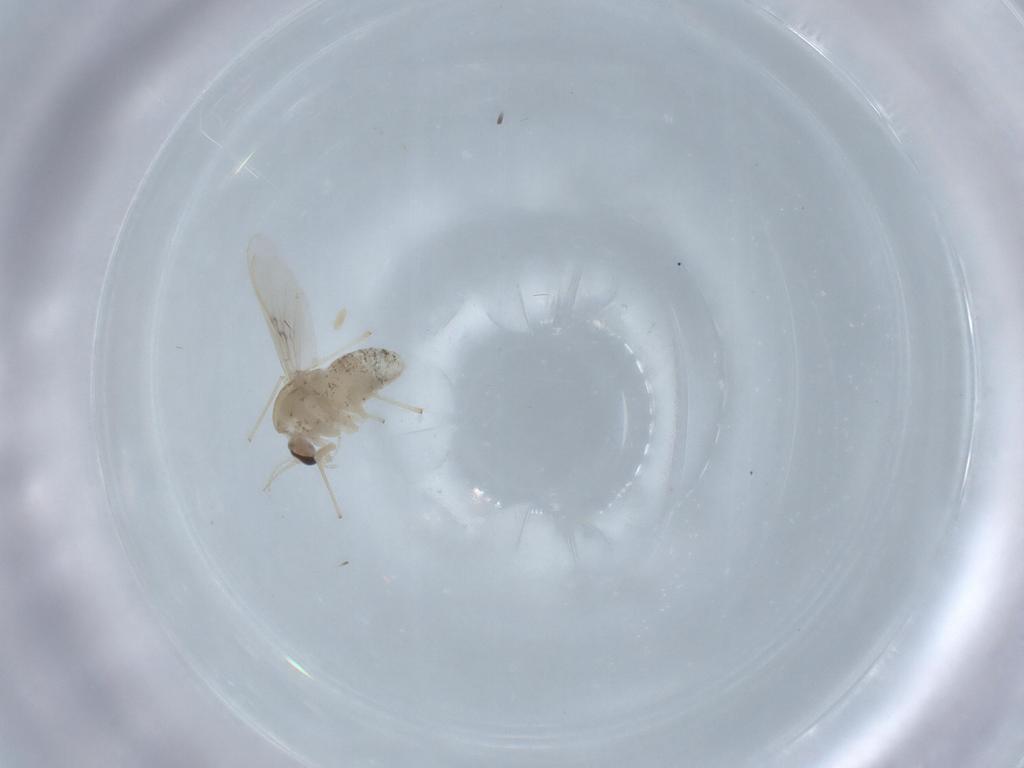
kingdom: Animalia
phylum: Arthropoda
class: Insecta
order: Diptera
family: Chironomidae
